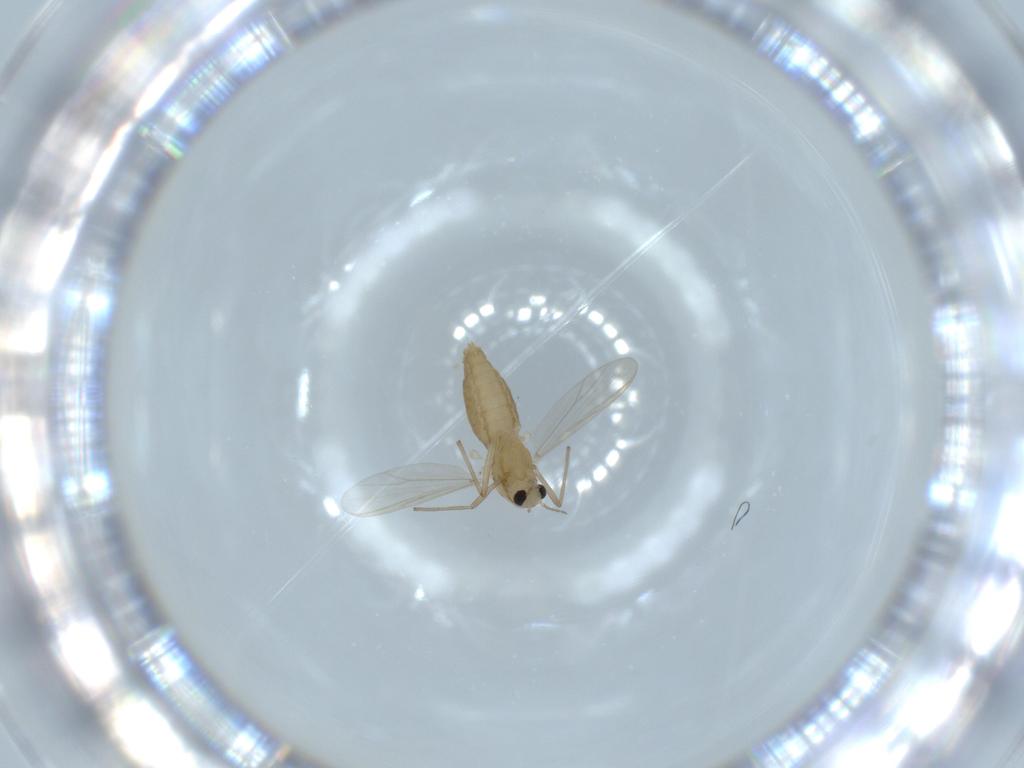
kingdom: Animalia
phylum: Arthropoda
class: Insecta
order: Diptera
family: Chironomidae
